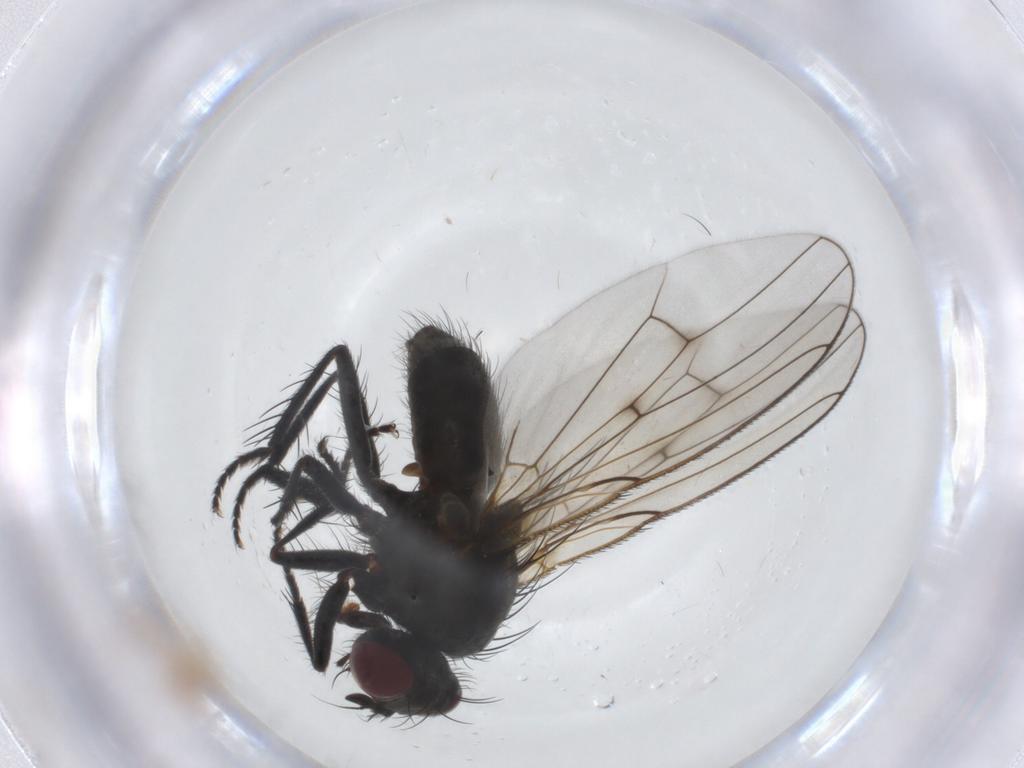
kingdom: Animalia
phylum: Arthropoda
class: Insecta
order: Diptera
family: Muscidae
